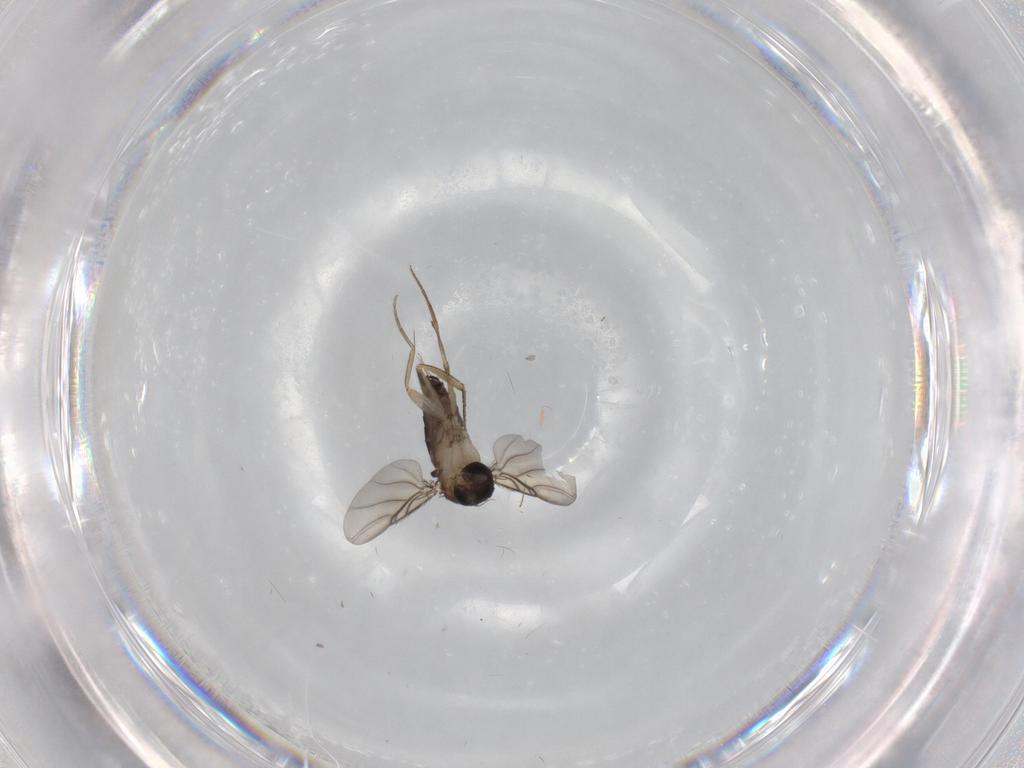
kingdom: Animalia
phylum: Arthropoda
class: Insecta
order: Diptera
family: Phoridae
